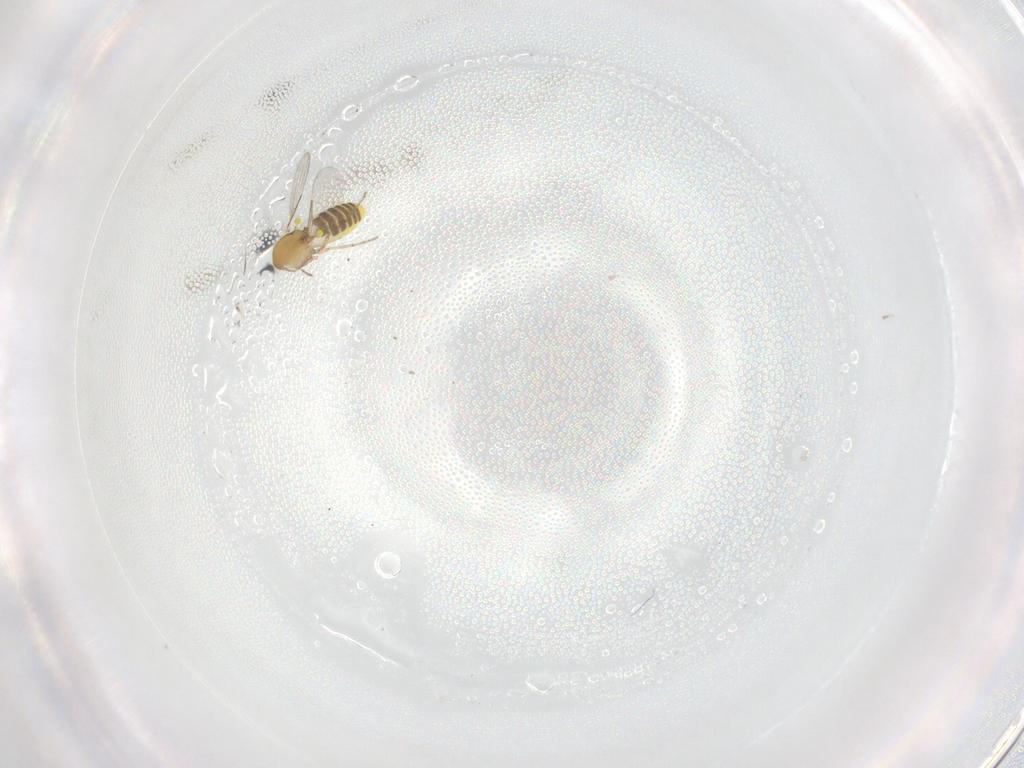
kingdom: Animalia
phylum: Arthropoda
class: Insecta
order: Diptera
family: Ceratopogonidae
